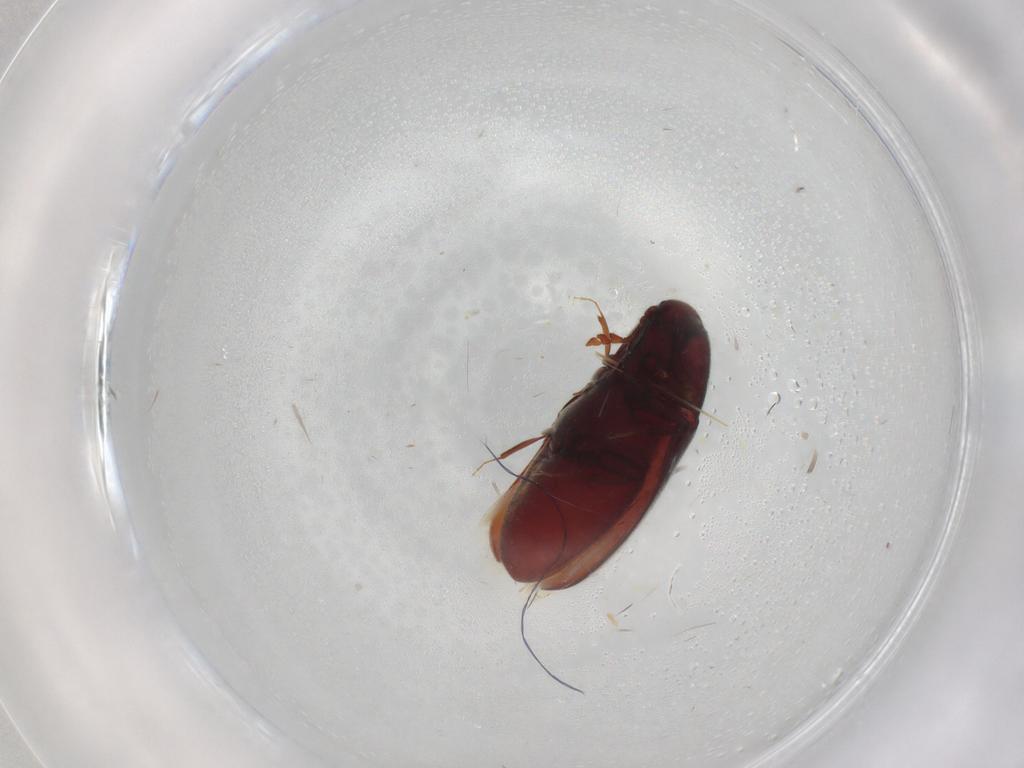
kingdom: Animalia
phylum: Arthropoda
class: Insecta
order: Coleoptera
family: Throscidae
